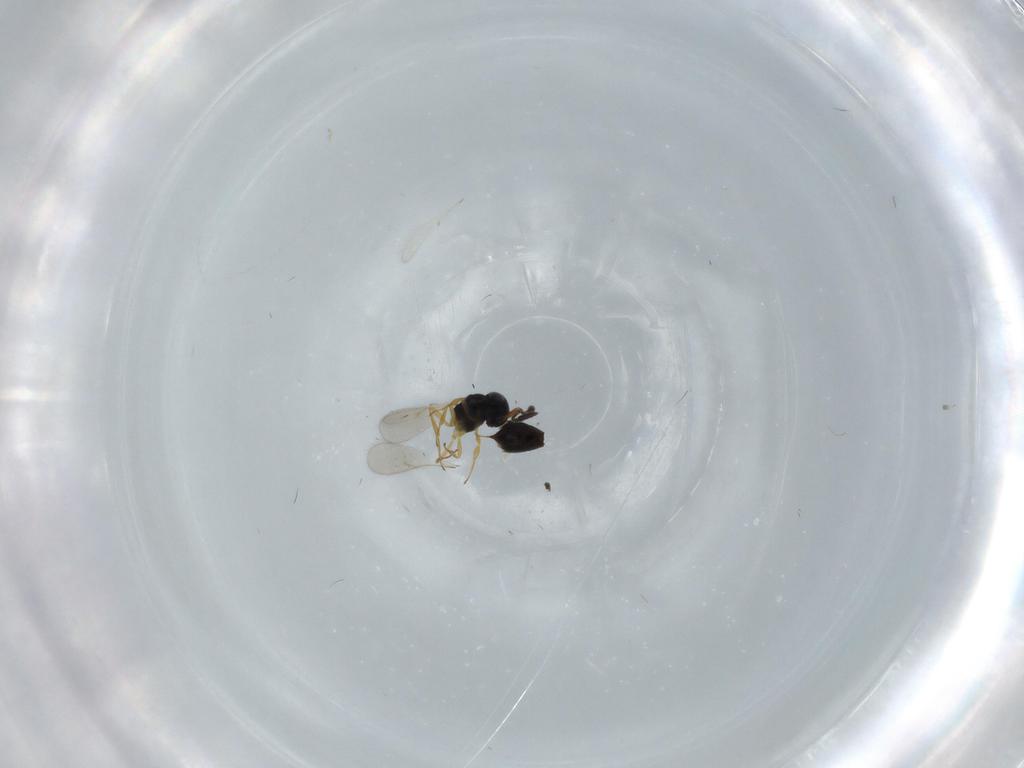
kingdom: Animalia
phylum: Arthropoda
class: Insecta
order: Hymenoptera
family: Scelionidae
